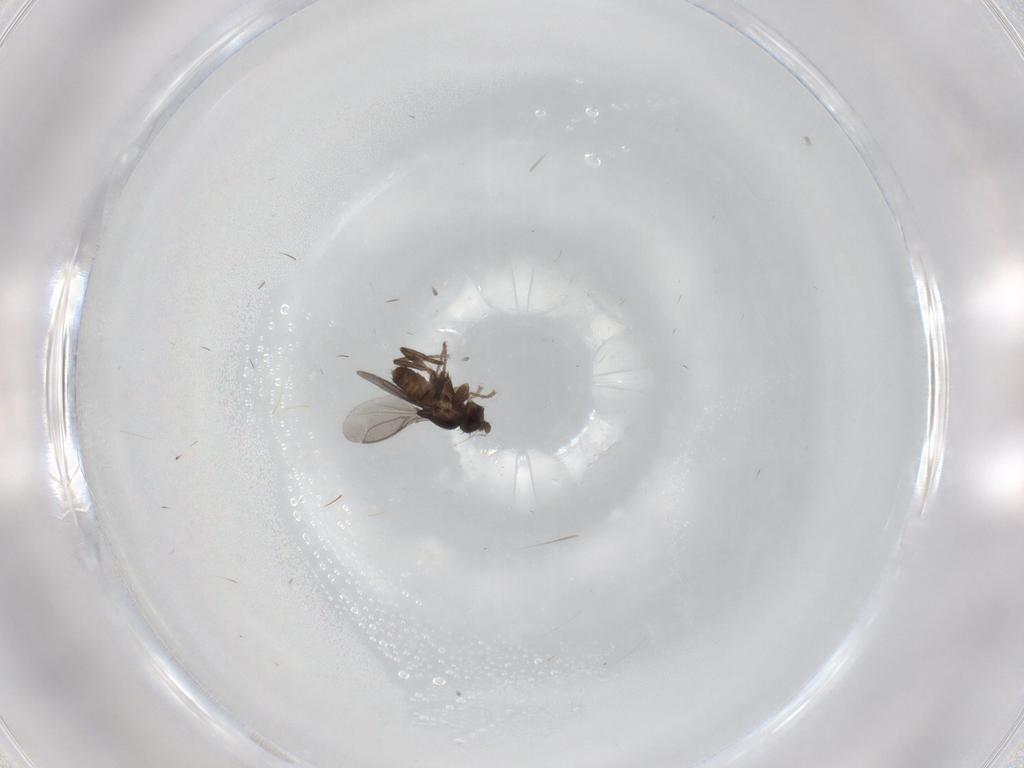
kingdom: Animalia
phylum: Arthropoda
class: Insecta
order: Diptera
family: Sphaeroceridae
